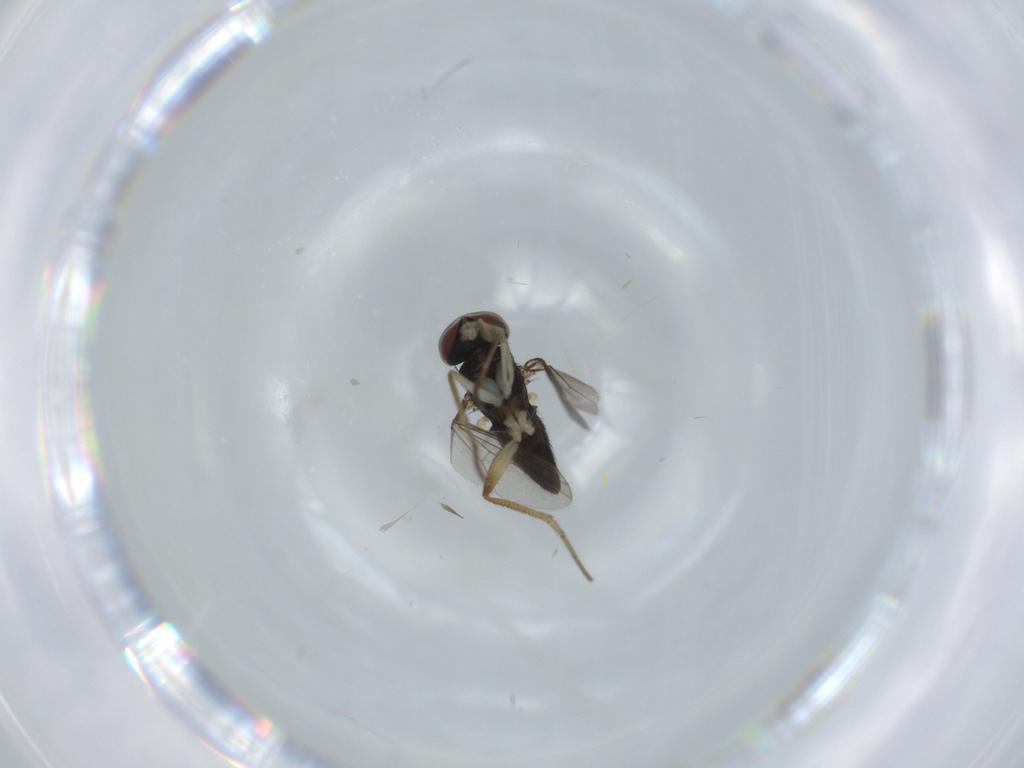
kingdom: Animalia
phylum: Arthropoda
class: Insecta
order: Diptera
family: Dolichopodidae
